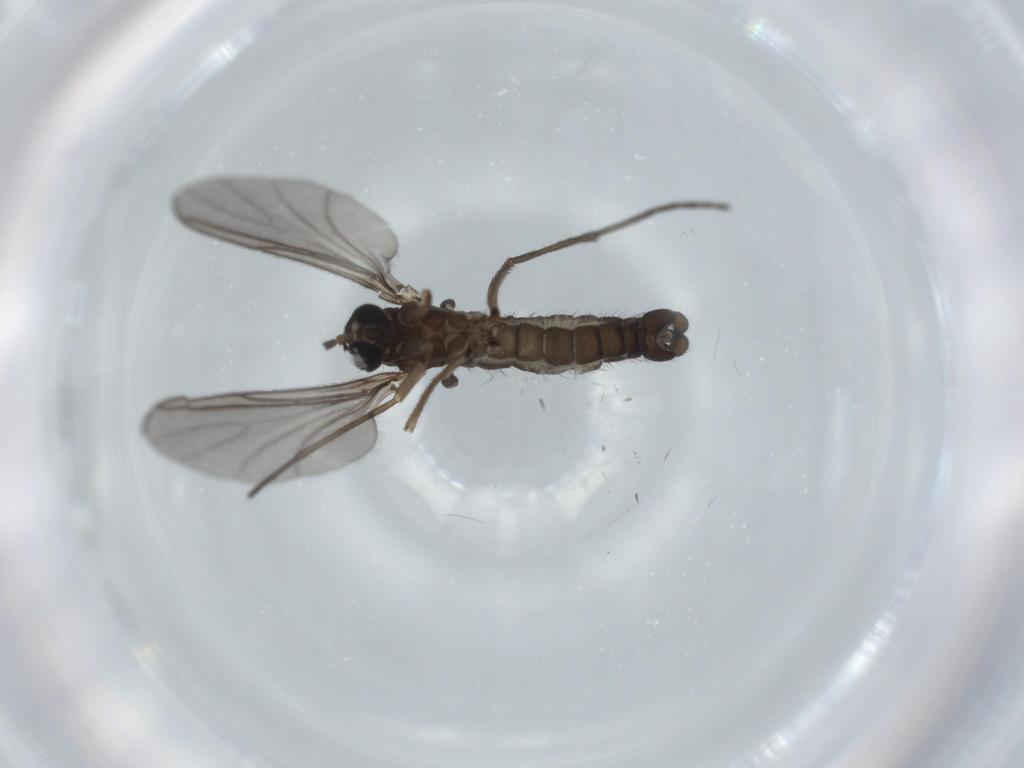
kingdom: Animalia
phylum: Arthropoda
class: Insecta
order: Diptera
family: Sciaridae
